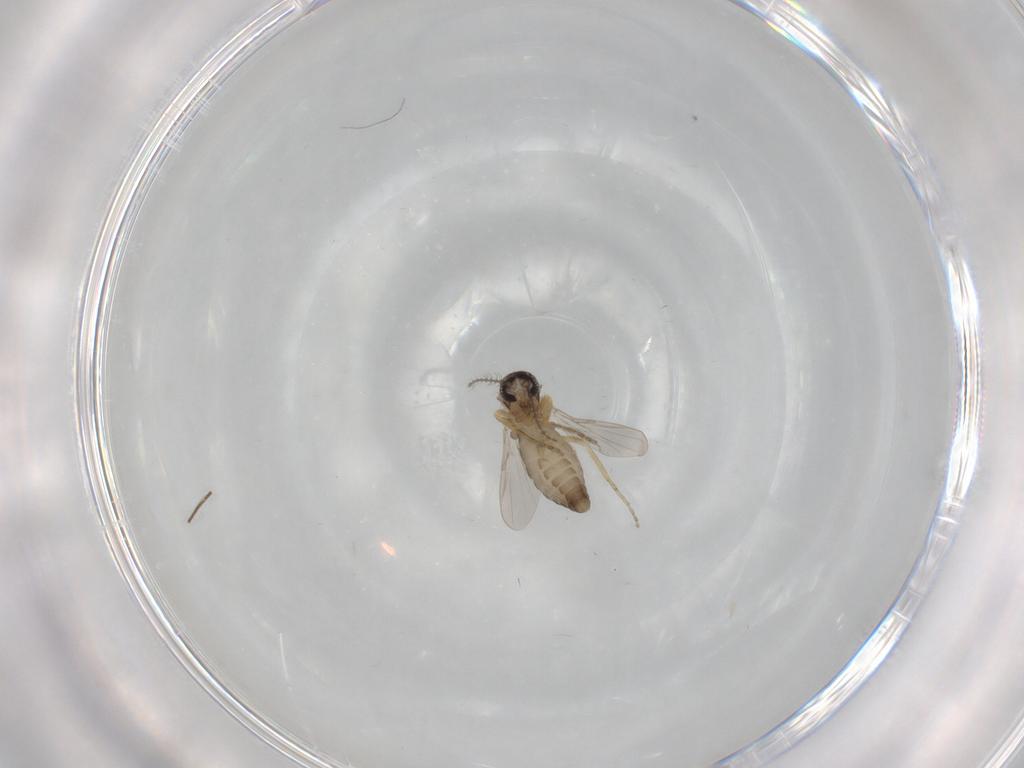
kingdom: Animalia
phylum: Arthropoda
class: Insecta
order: Diptera
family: Ceratopogonidae
